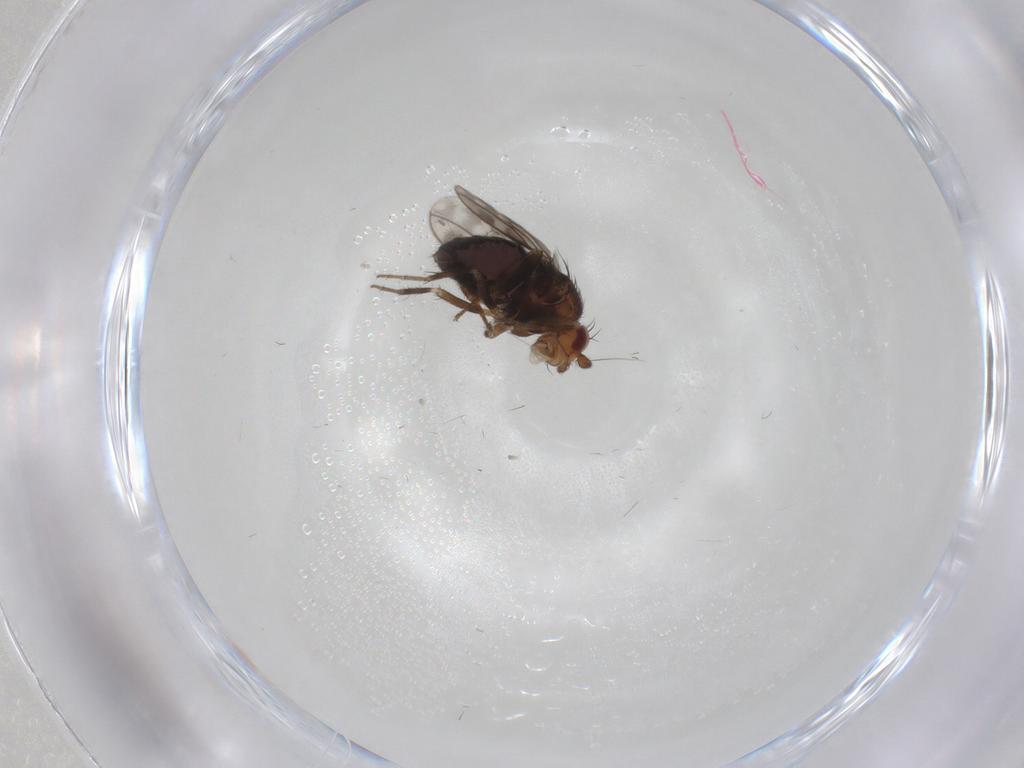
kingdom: Animalia
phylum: Arthropoda
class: Insecta
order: Diptera
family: Sphaeroceridae
